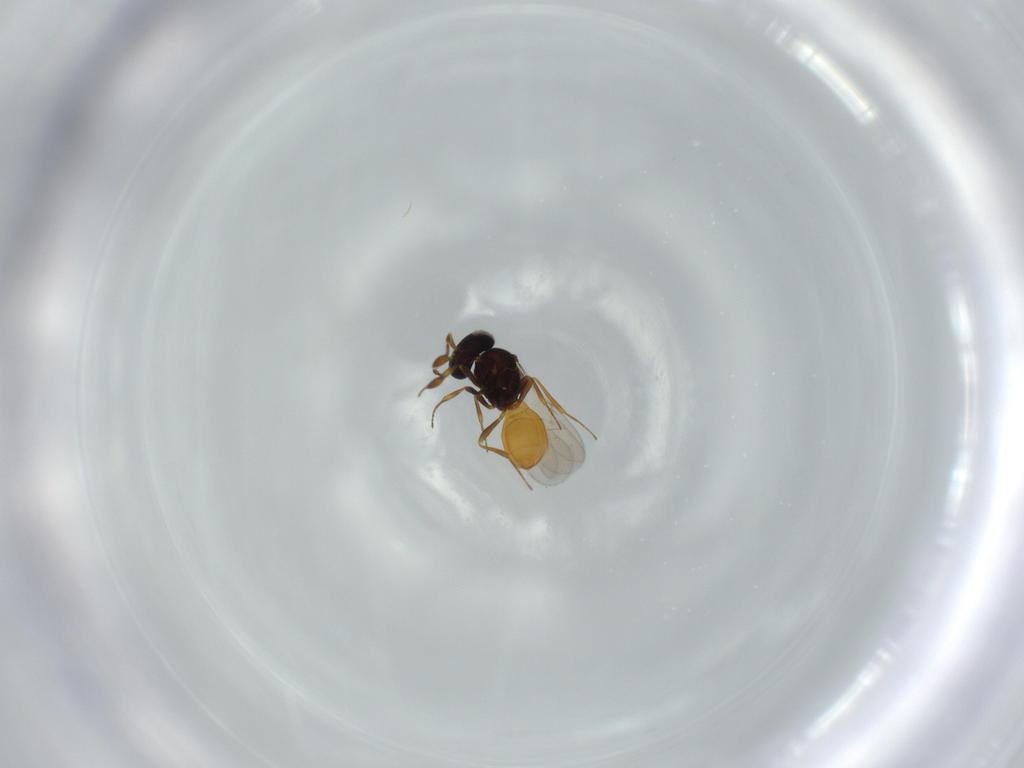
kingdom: Animalia
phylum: Arthropoda
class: Insecta
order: Hymenoptera
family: Scelionidae
